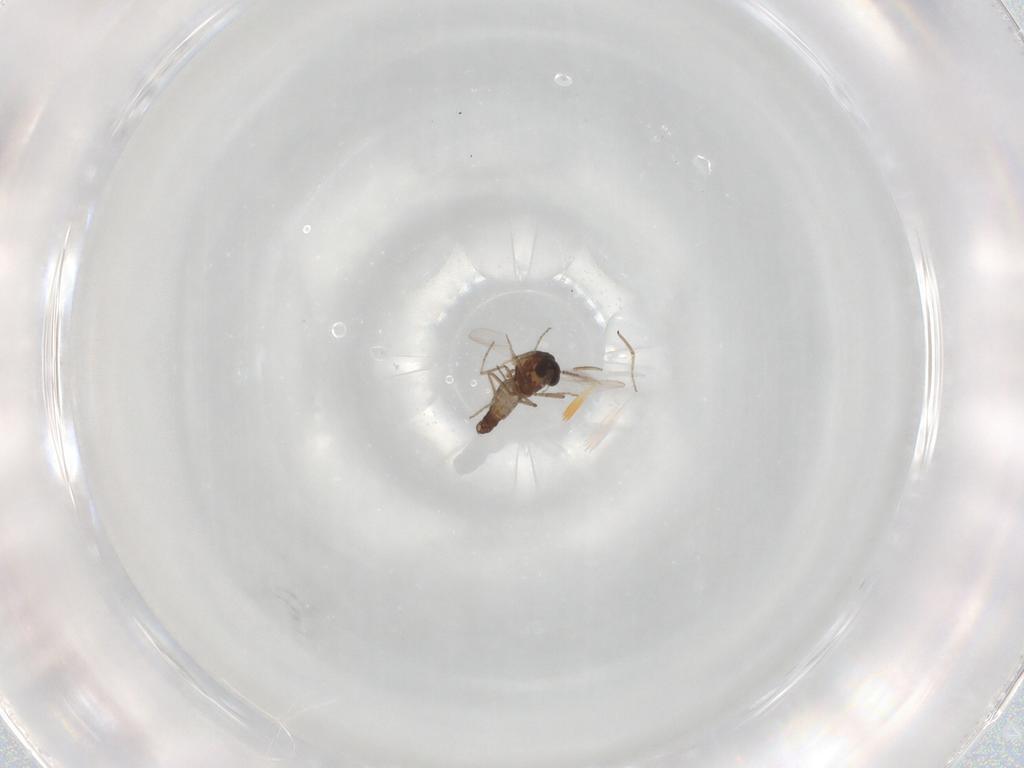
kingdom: Animalia
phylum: Arthropoda
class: Insecta
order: Diptera
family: Ceratopogonidae
